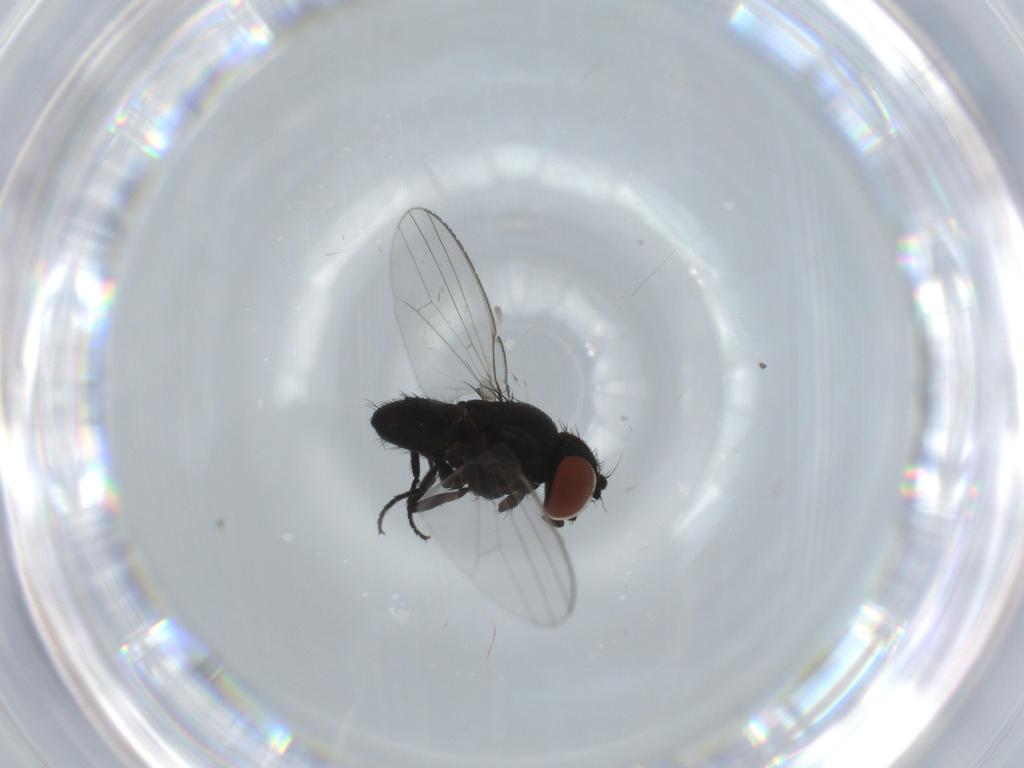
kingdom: Animalia
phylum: Arthropoda
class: Insecta
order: Diptera
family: Milichiidae
